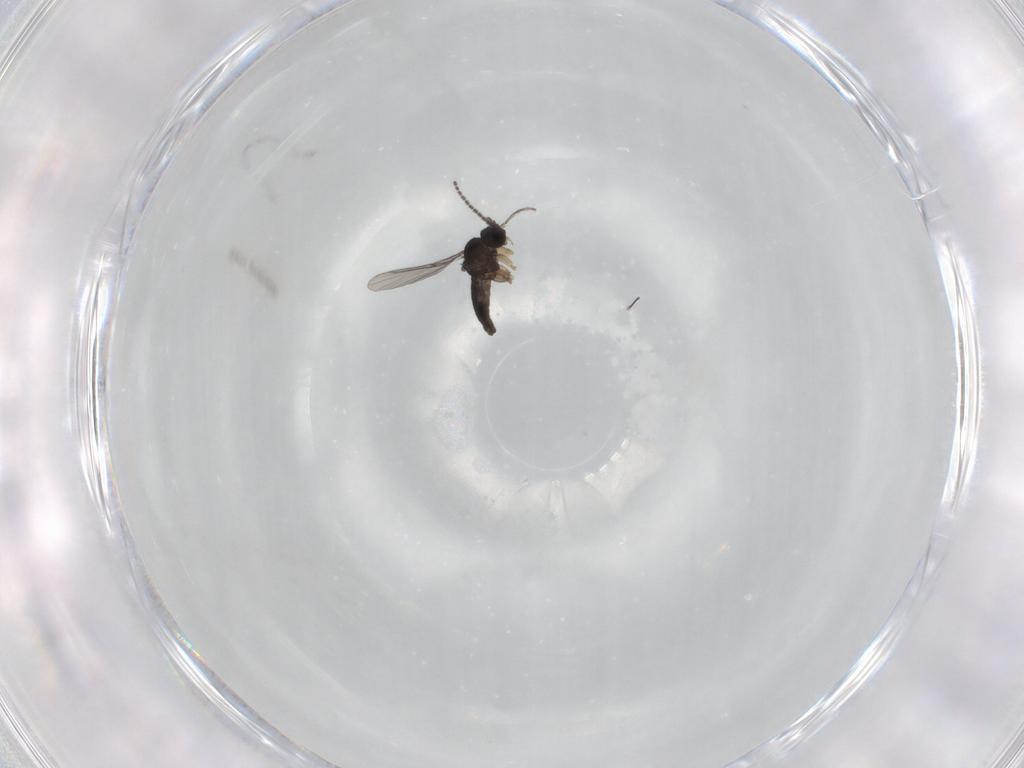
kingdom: Animalia
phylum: Arthropoda
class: Insecta
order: Diptera
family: Sciaridae
